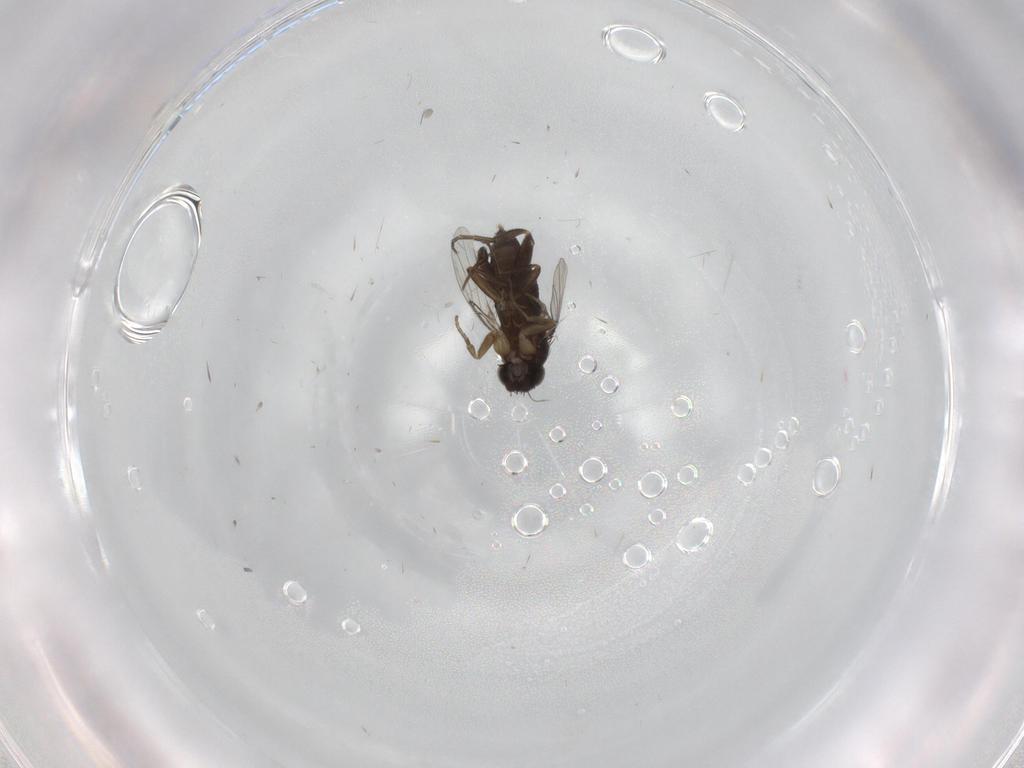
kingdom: Animalia
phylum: Arthropoda
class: Insecta
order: Diptera
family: Phoridae
